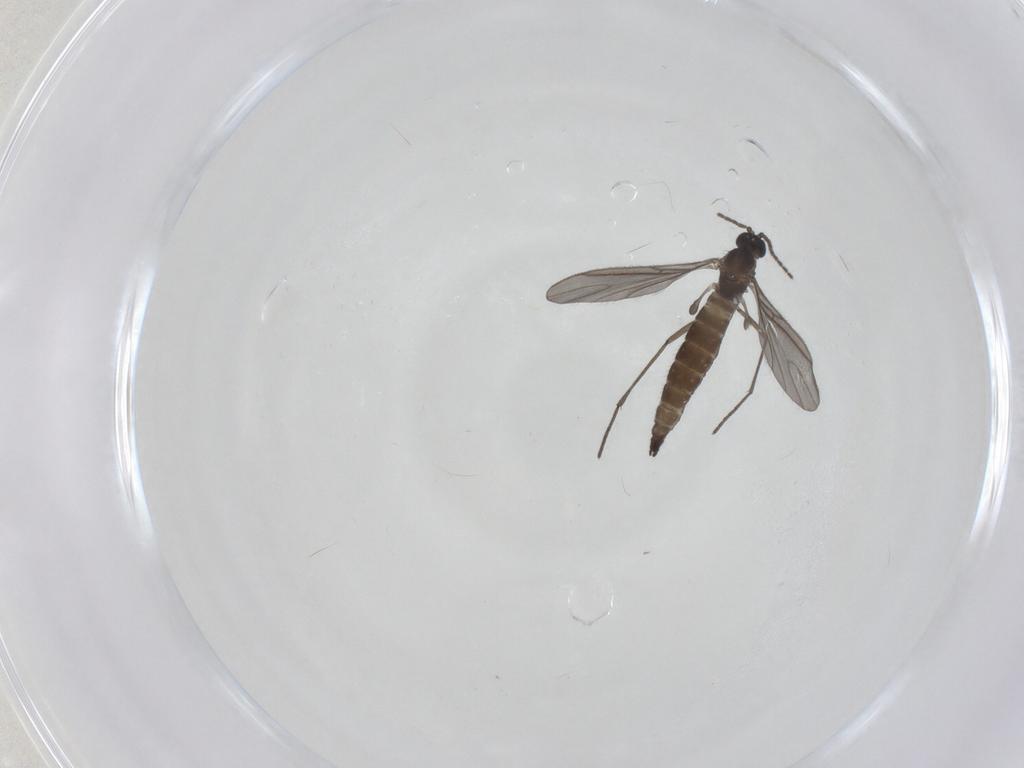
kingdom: Animalia
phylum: Arthropoda
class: Insecta
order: Diptera
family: Sciaridae
